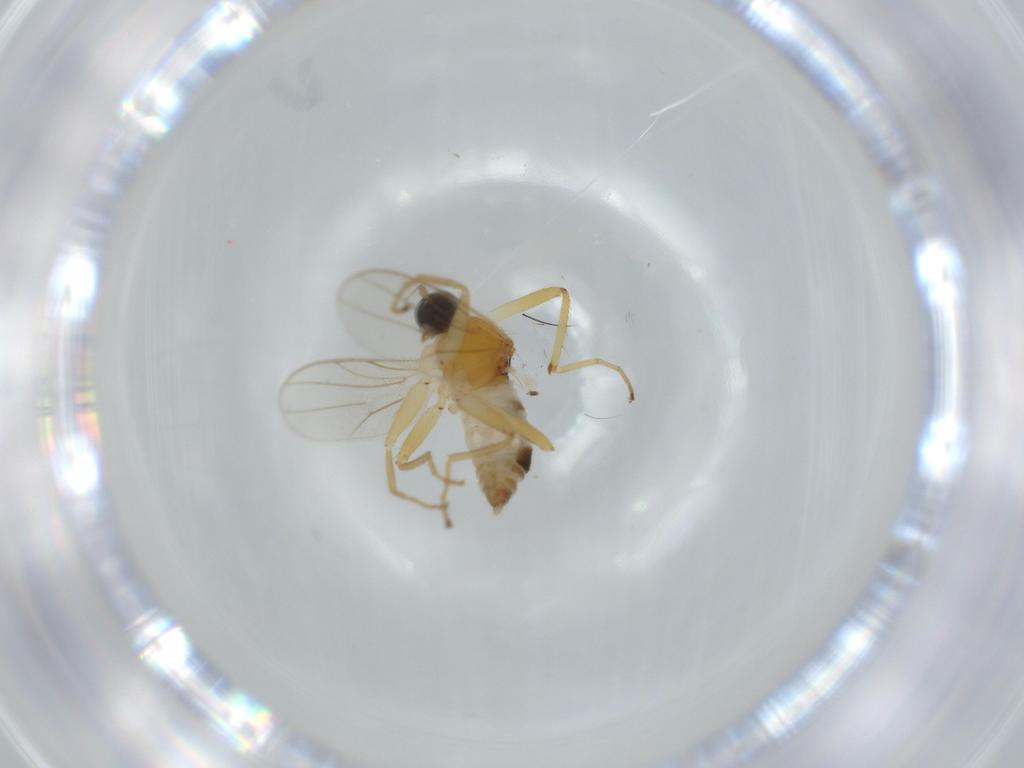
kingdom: Animalia
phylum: Arthropoda
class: Insecta
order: Diptera
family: Hybotidae
